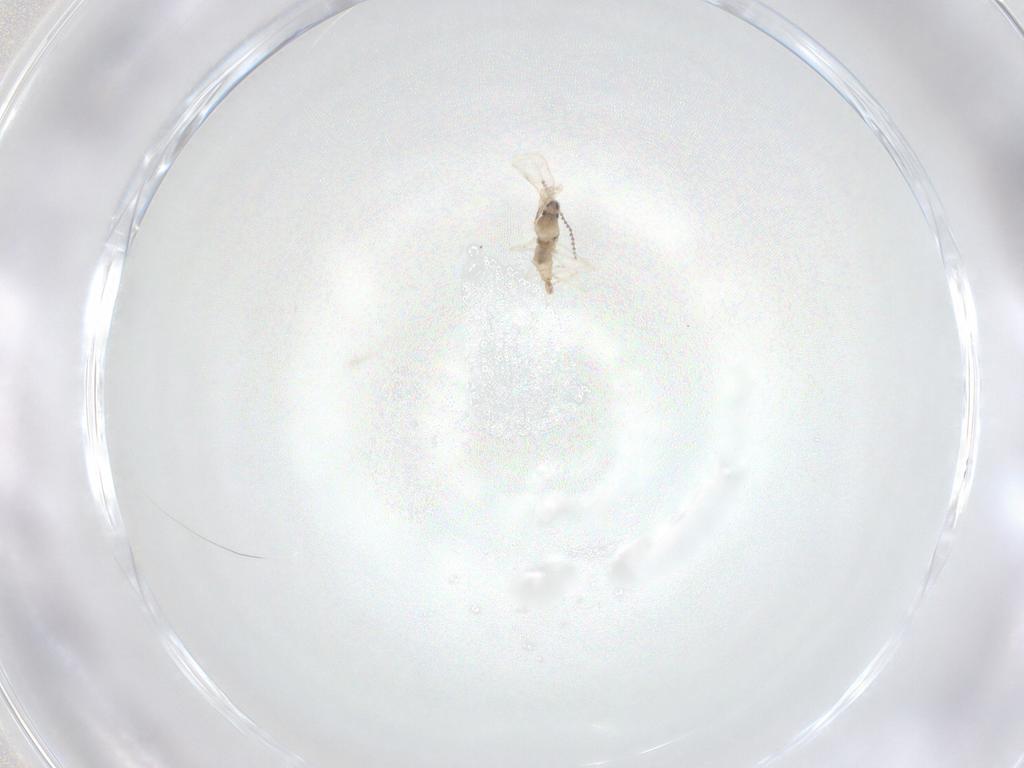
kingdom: Animalia
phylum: Arthropoda
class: Insecta
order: Diptera
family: Cecidomyiidae
